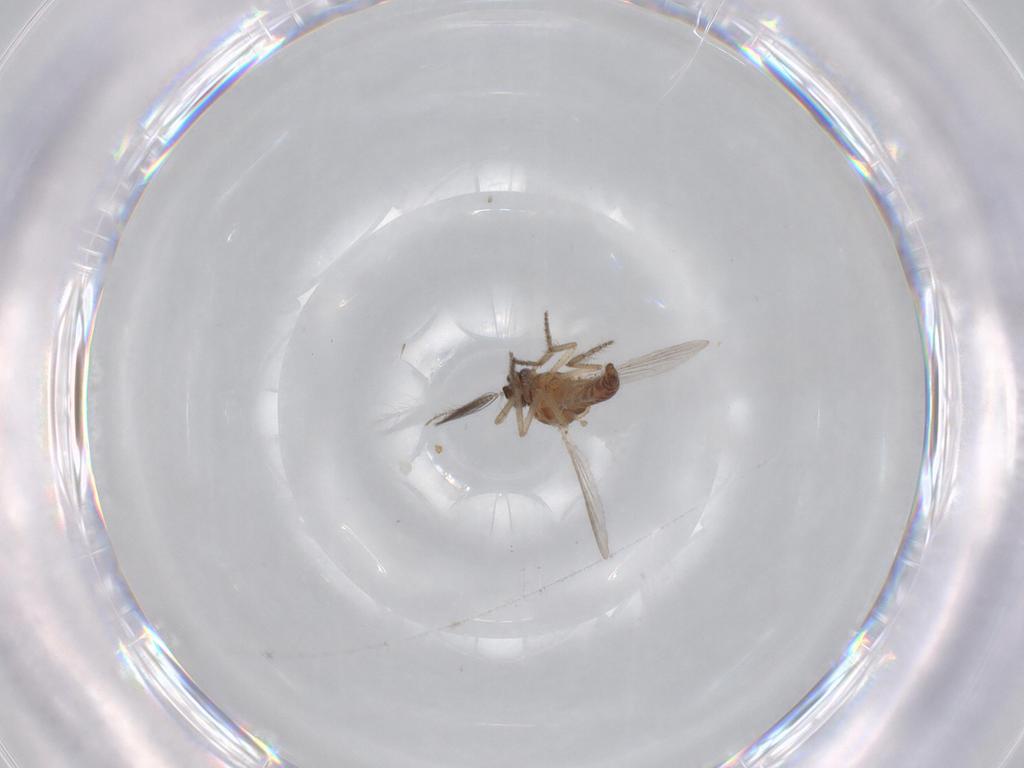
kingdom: Animalia
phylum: Arthropoda
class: Insecta
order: Diptera
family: Ceratopogonidae
